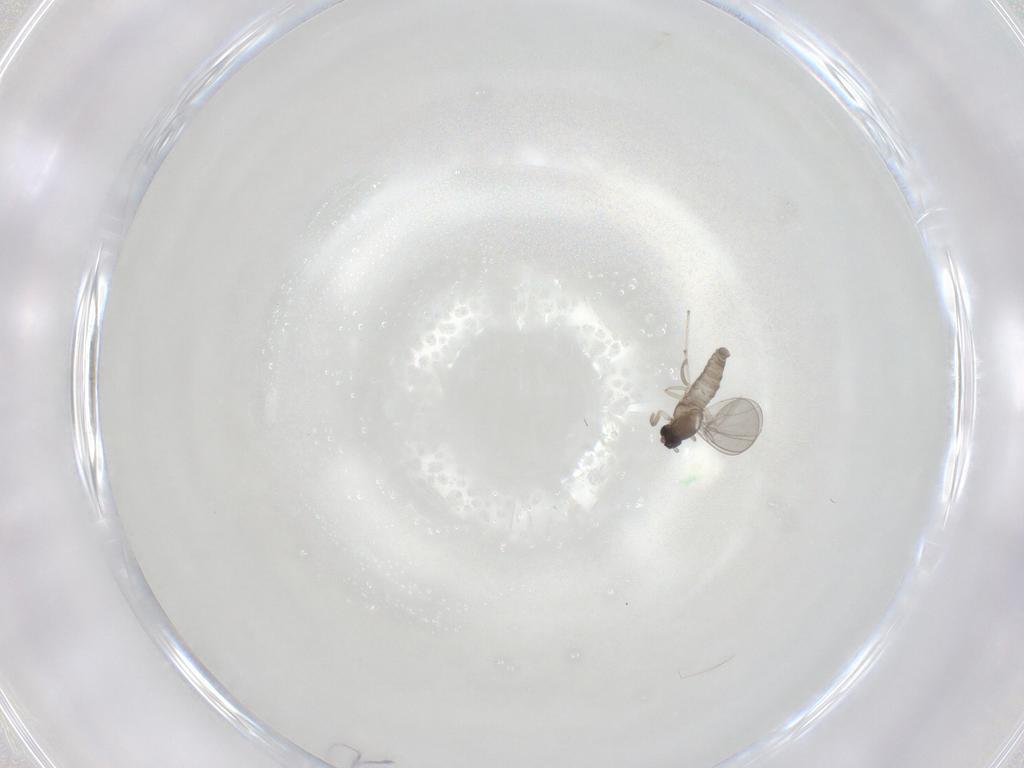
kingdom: Animalia
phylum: Arthropoda
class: Insecta
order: Diptera
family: Cecidomyiidae
